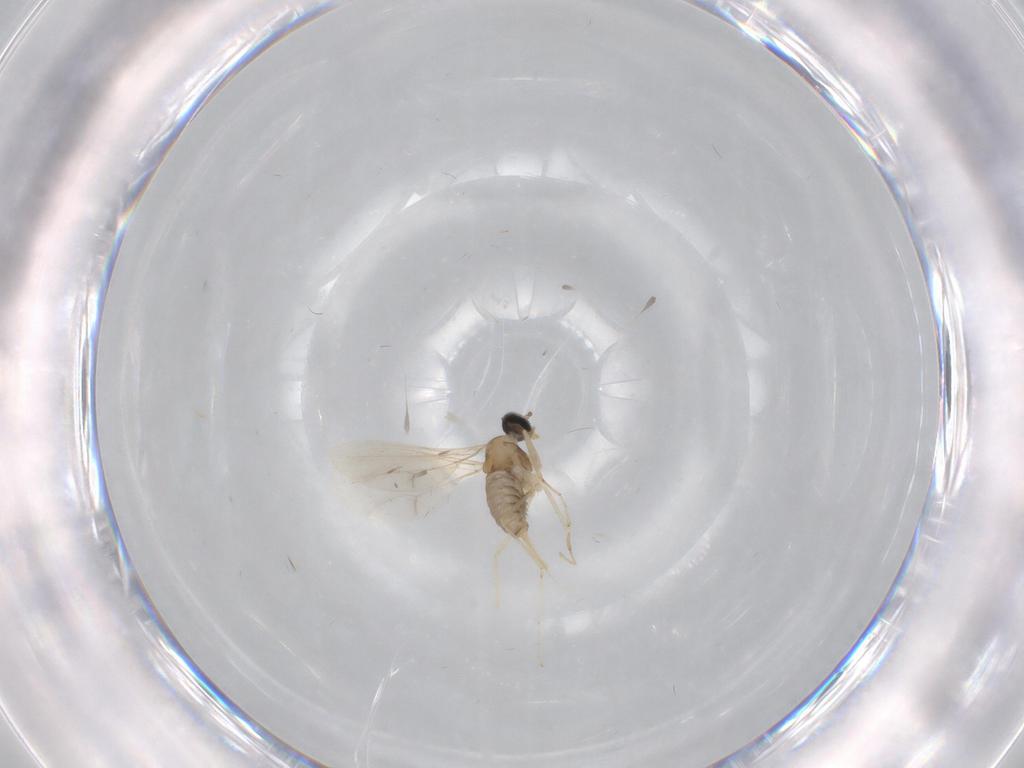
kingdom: Animalia
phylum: Arthropoda
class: Insecta
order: Diptera
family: Cecidomyiidae
